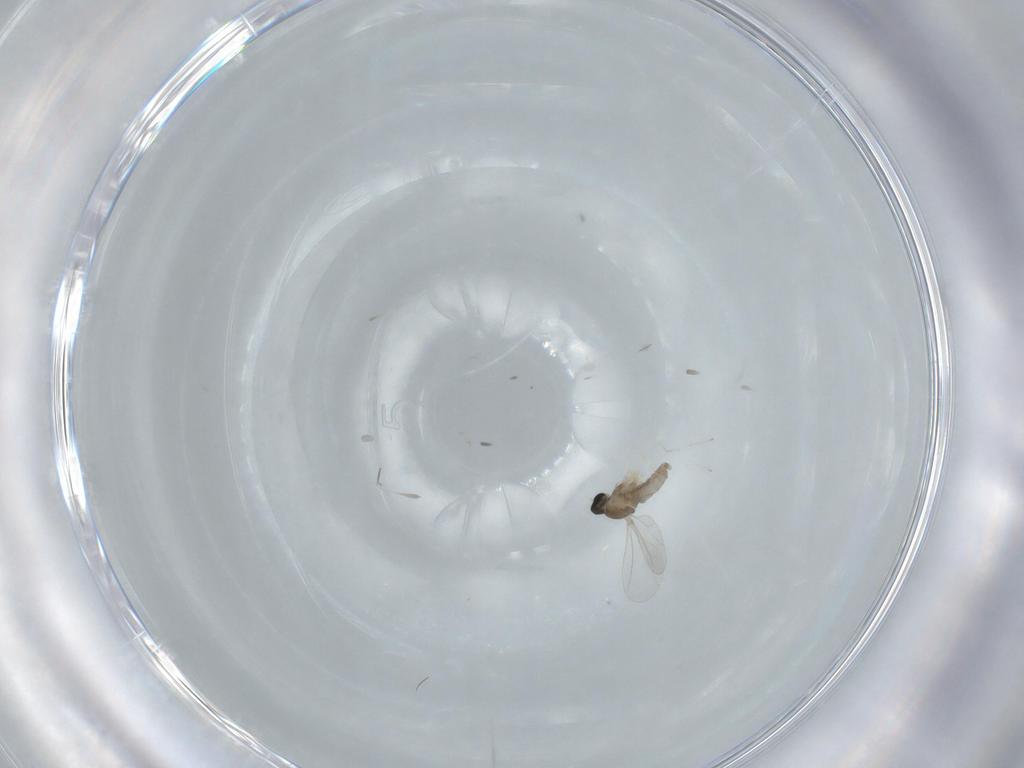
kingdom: Animalia
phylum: Arthropoda
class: Insecta
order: Diptera
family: Cecidomyiidae
